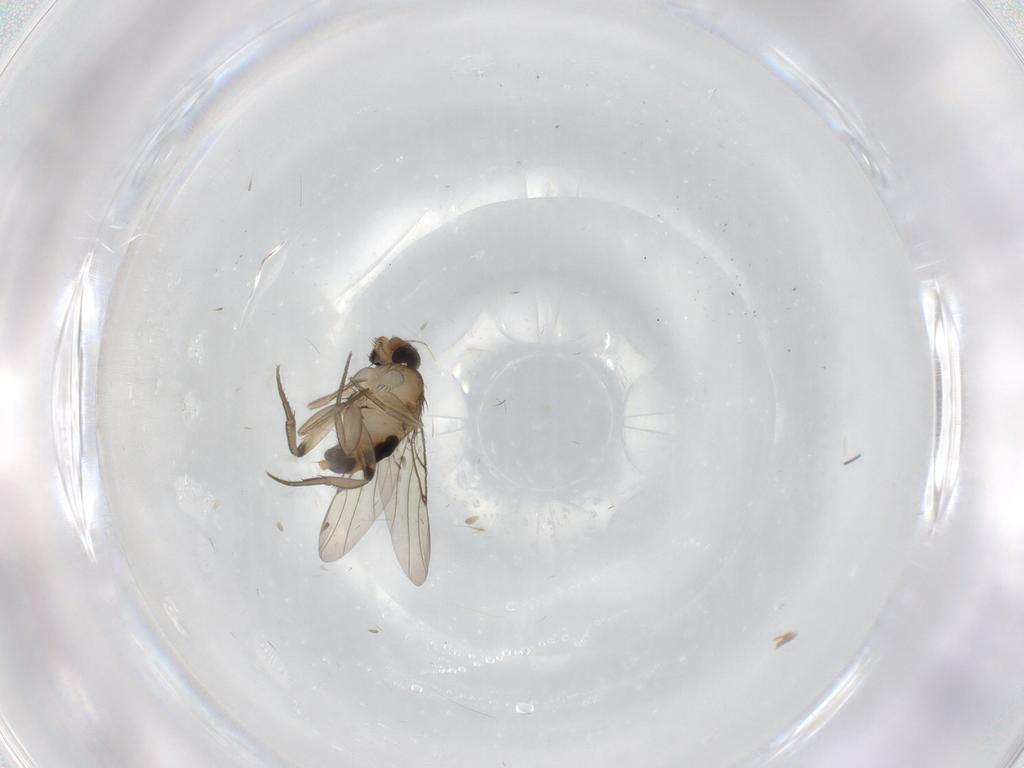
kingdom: Animalia
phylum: Arthropoda
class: Insecta
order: Diptera
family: Phoridae
